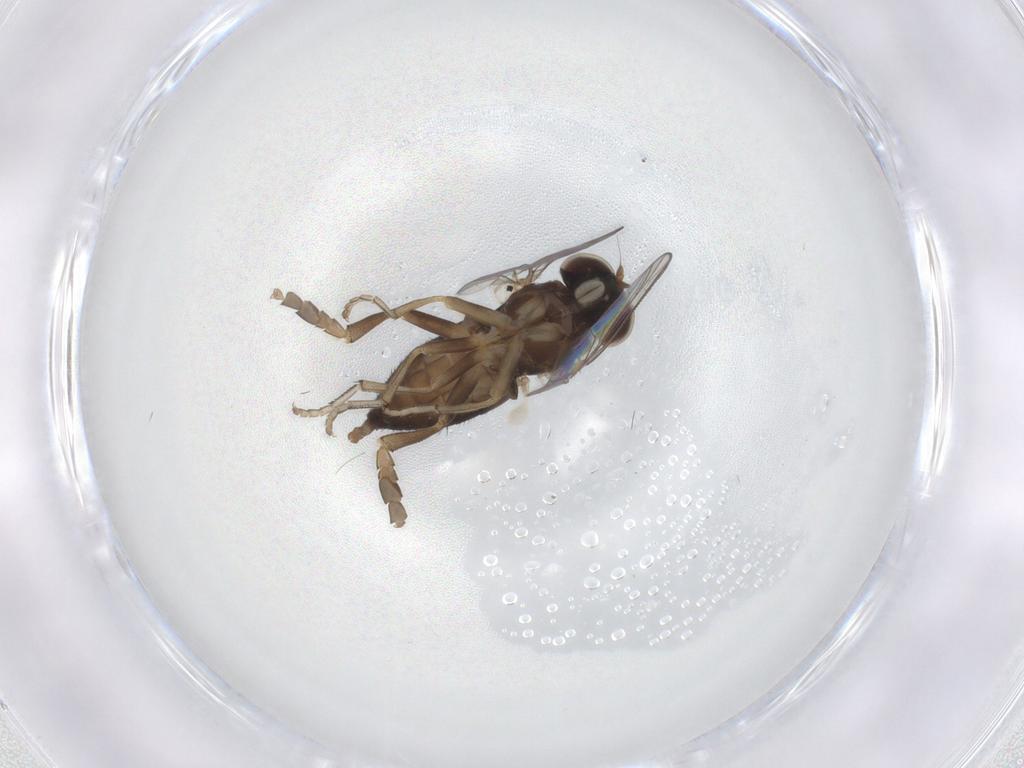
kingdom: Animalia
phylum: Arthropoda
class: Insecta
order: Diptera
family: Platypezidae
